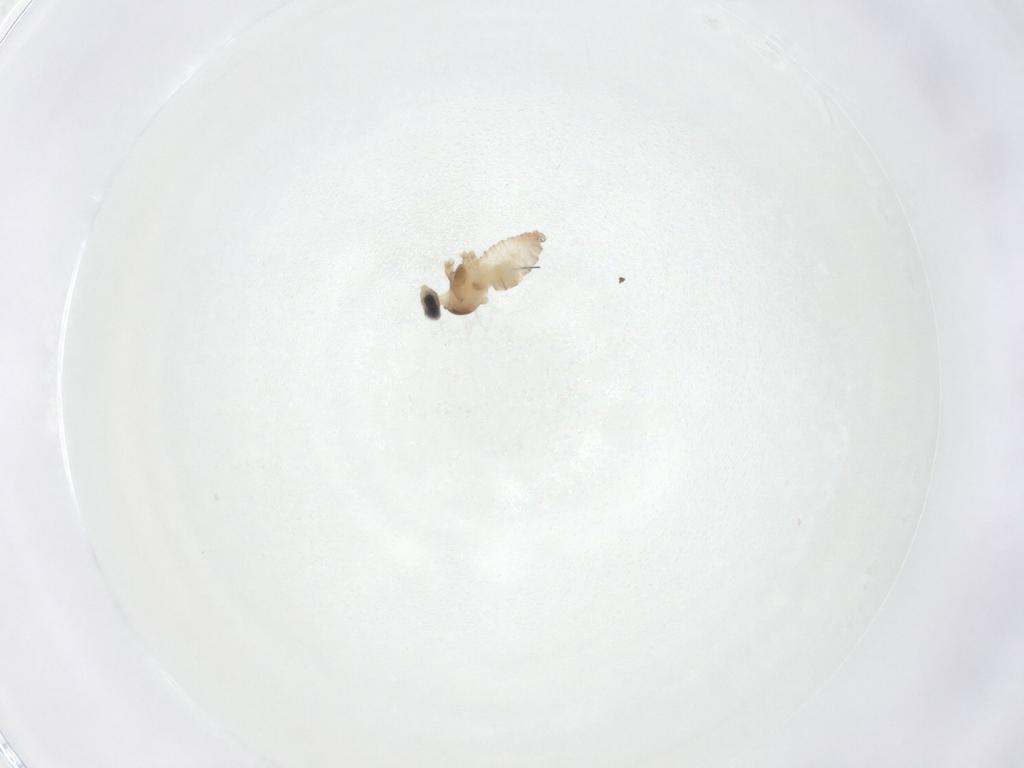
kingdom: Animalia
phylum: Arthropoda
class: Insecta
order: Diptera
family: Cecidomyiidae
